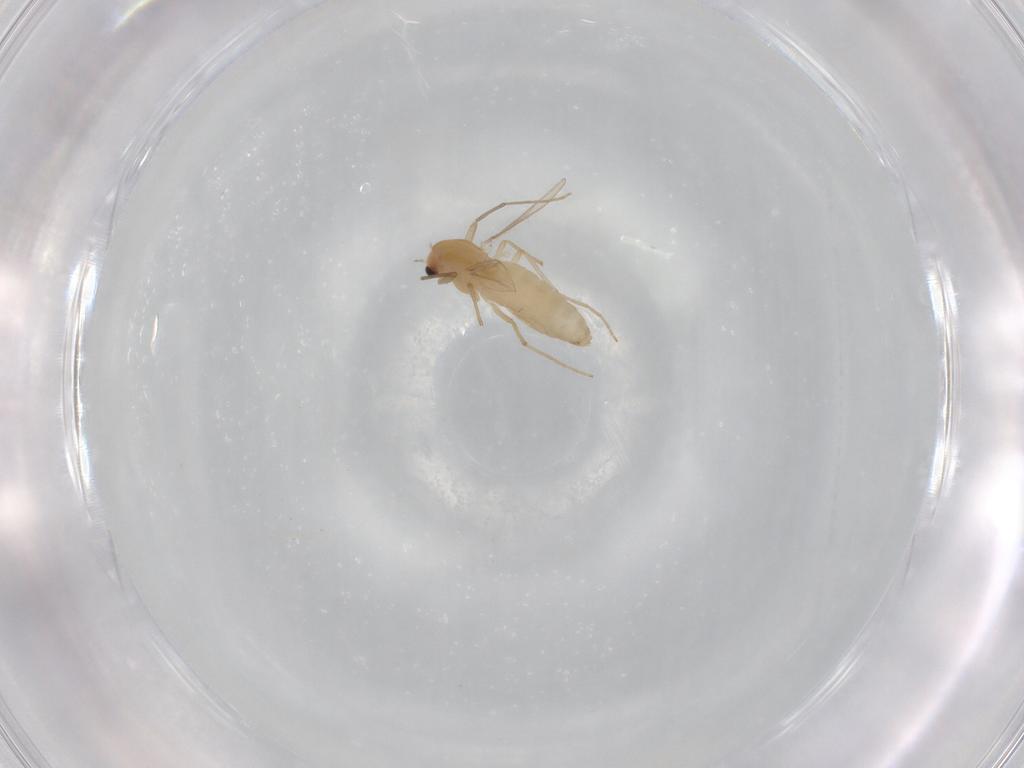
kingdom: Animalia
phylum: Arthropoda
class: Insecta
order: Diptera
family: Chironomidae
